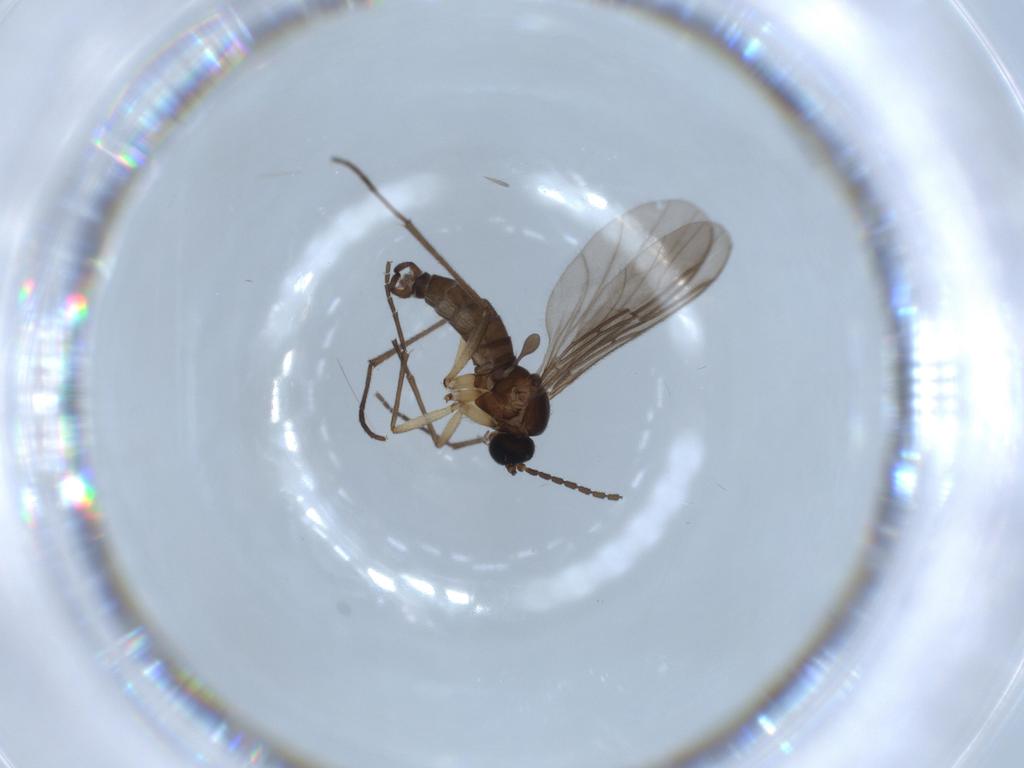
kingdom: Animalia
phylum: Arthropoda
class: Insecta
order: Diptera
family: Sciaridae
